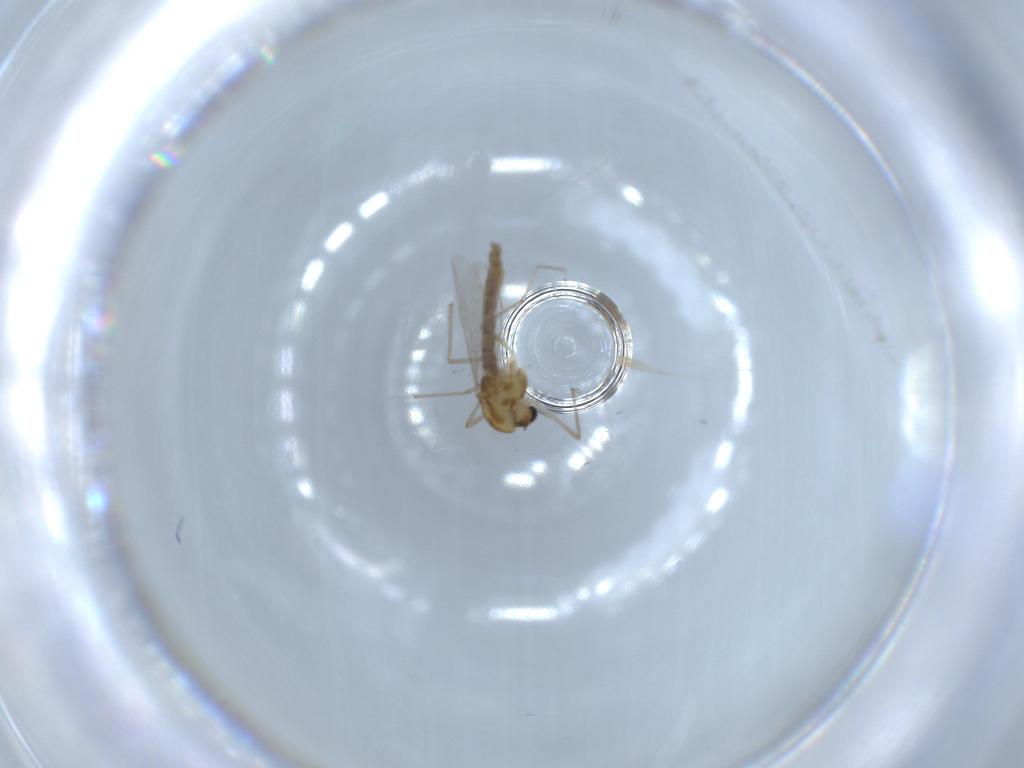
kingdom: Animalia
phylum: Arthropoda
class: Insecta
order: Diptera
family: Chironomidae
